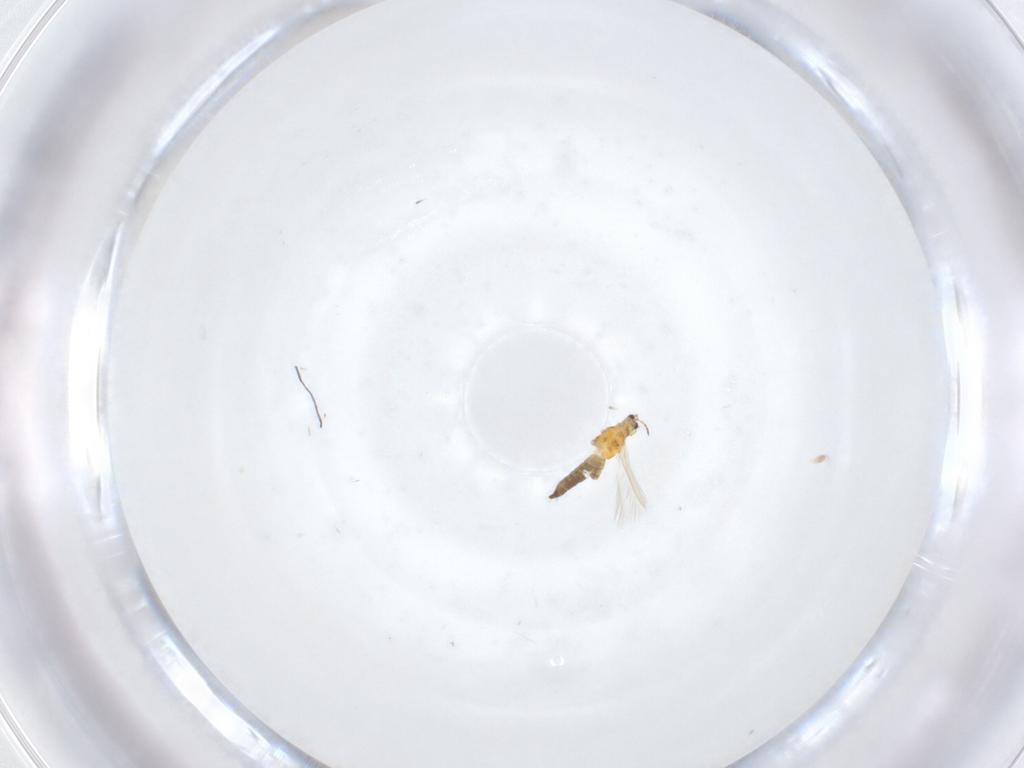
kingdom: Animalia
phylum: Arthropoda
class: Insecta
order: Thysanoptera
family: Thripidae
